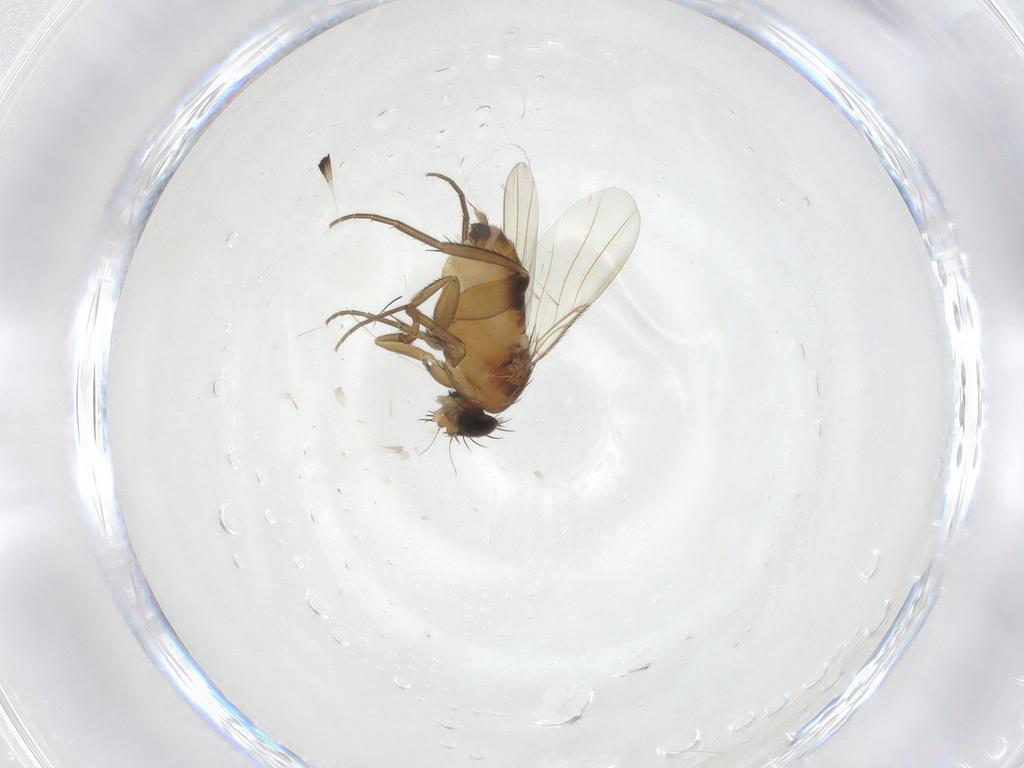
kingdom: Animalia
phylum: Arthropoda
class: Insecta
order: Diptera
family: Phoridae
